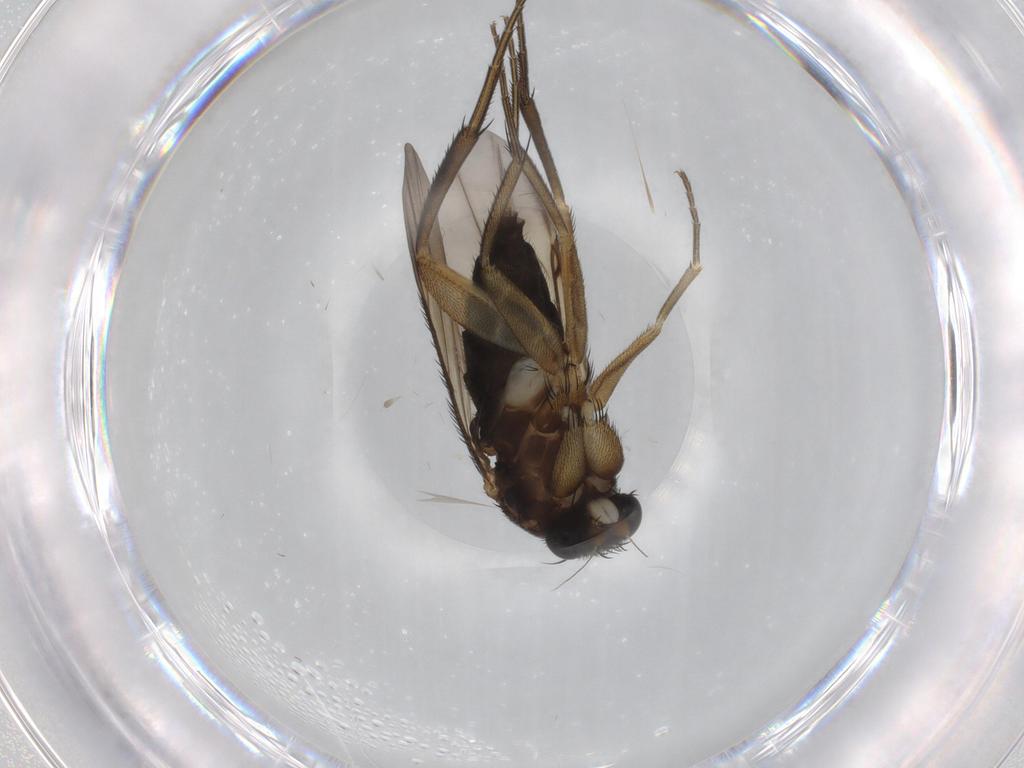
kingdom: Animalia
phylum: Arthropoda
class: Insecta
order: Diptera
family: Phoridae
